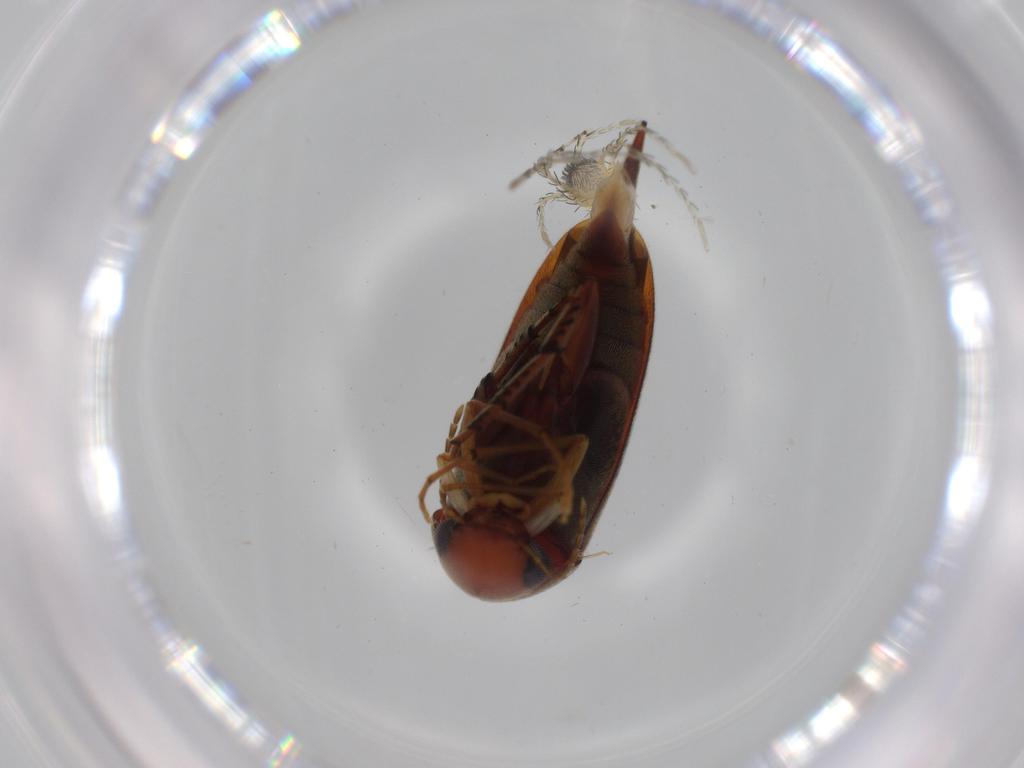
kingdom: Animalia
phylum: Arthropoda
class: Arachnida
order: Trombidiformes
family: Erythraeidae
